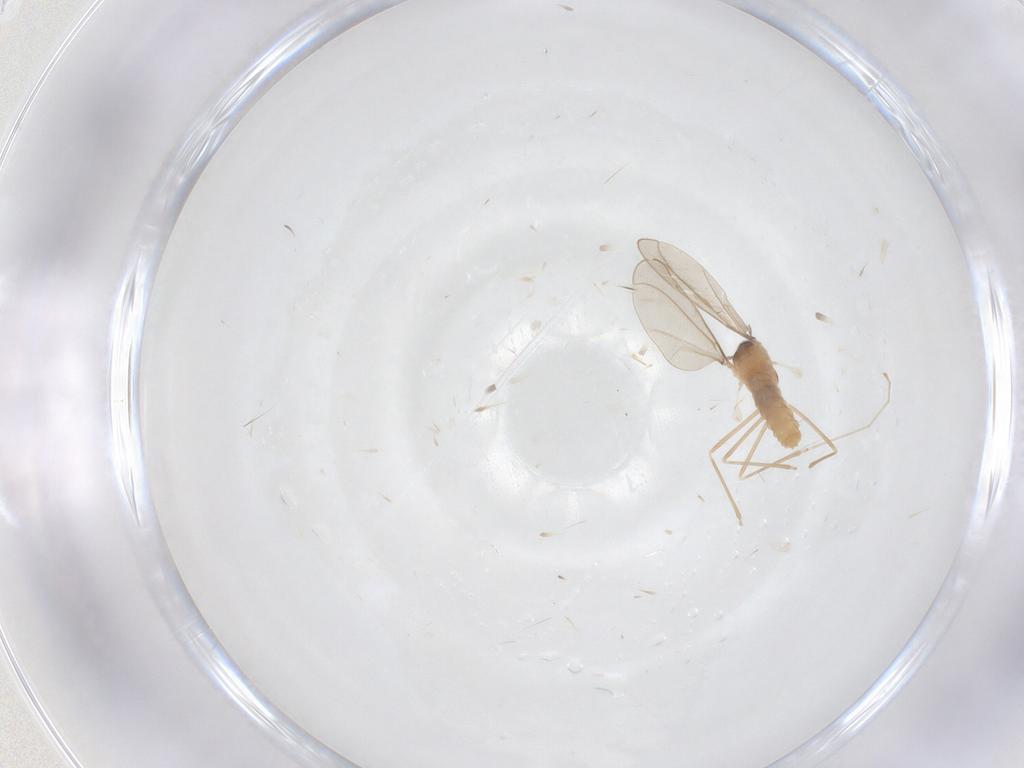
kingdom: Animalia
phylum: Arthropoda
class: Insecta
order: Diptera
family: Cecidomyiidae
